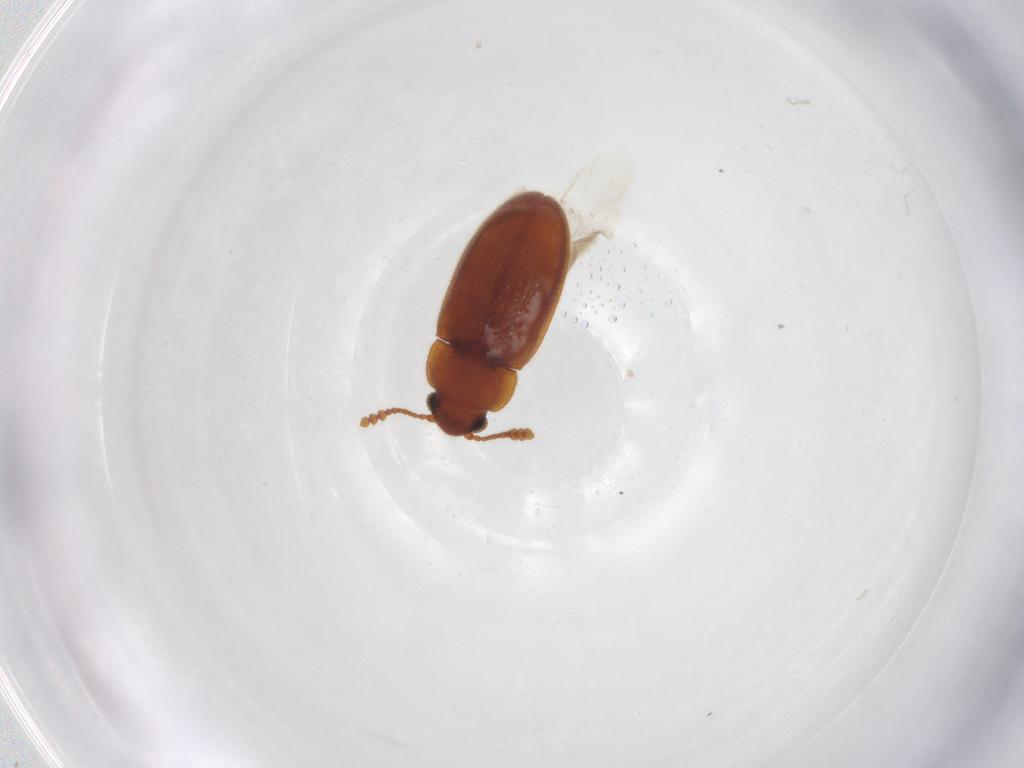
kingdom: Animalia
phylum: Arthropoda
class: Insecta
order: Coleoptera
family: Erotylidae
